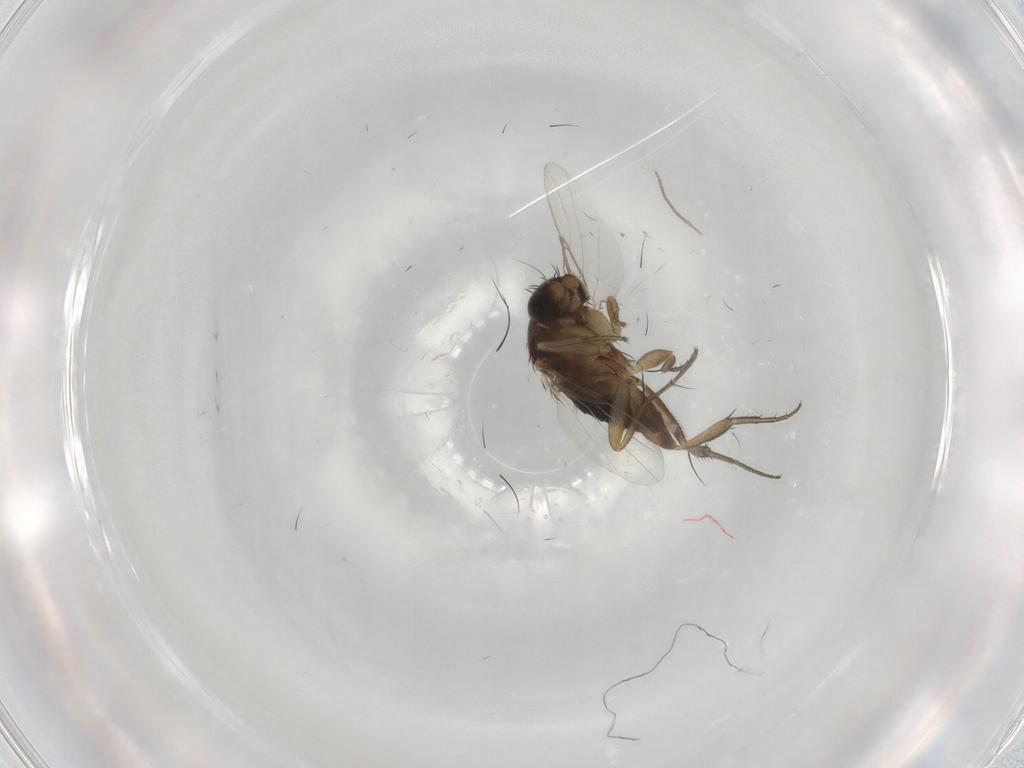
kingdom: Animalia
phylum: Arthropoda
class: Insecta
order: Diptera
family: Phoridae
